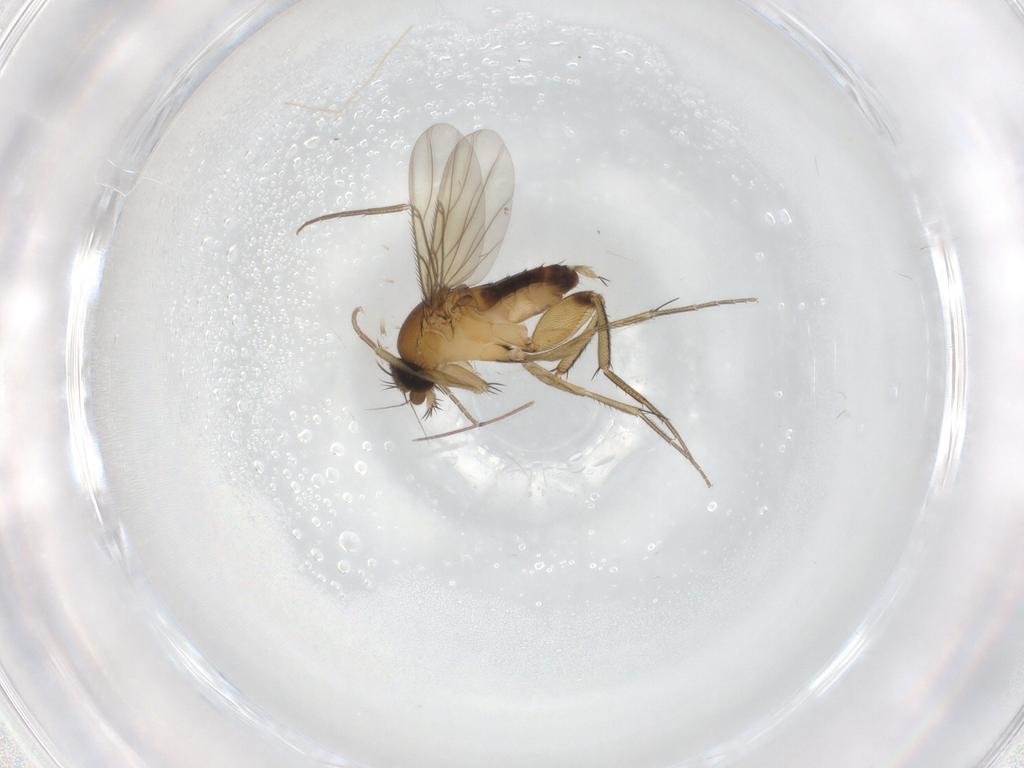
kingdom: Animalia
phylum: Arthropoda
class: Insecta
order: Diptera
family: Phoridae
